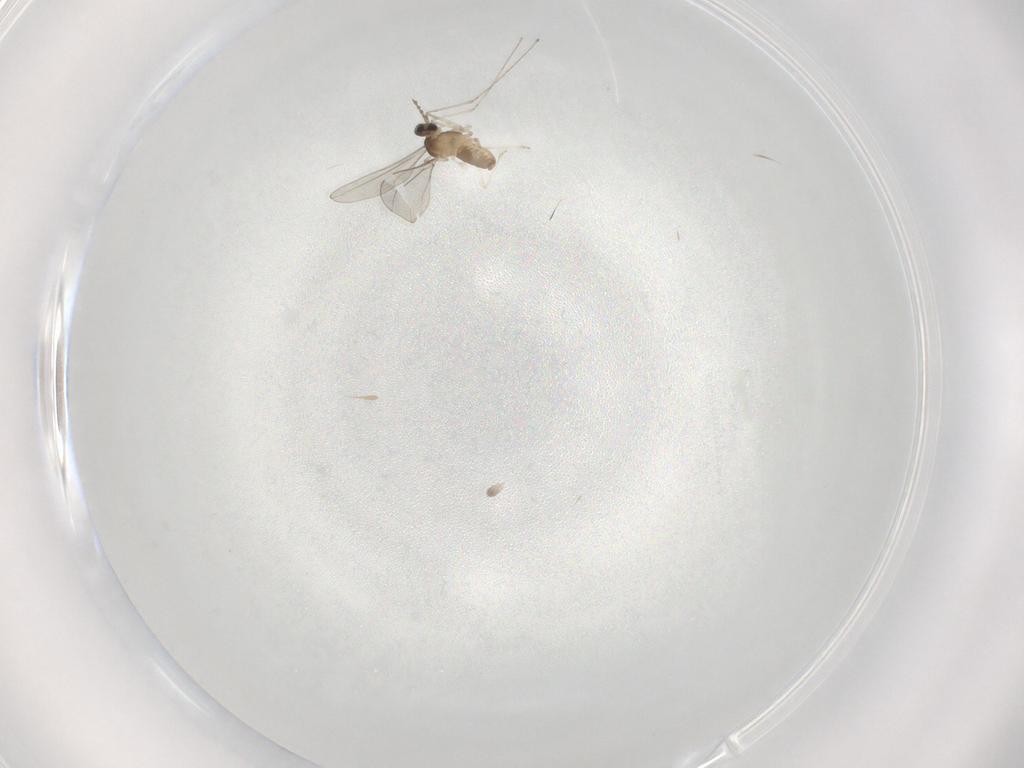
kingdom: Animalia
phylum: Arthropoda
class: Insecta
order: Diptera
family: Cecidomyiidae
